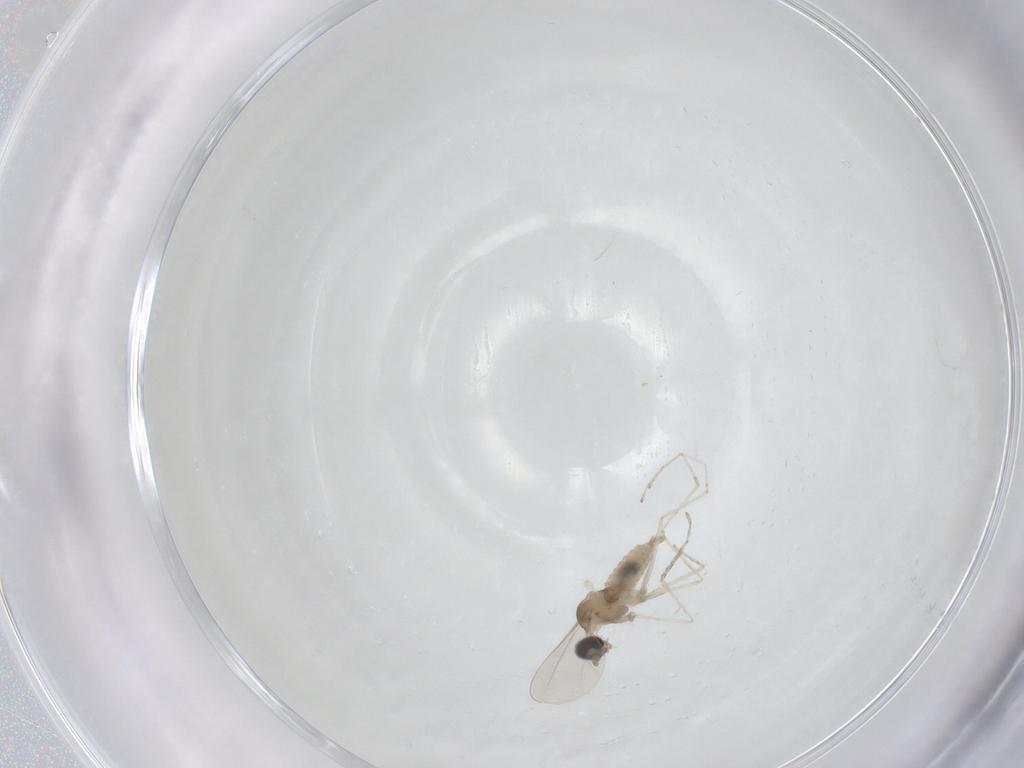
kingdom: Animalia
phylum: Arthropoda
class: Insecta
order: Diptera
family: Cecidomyiidae
